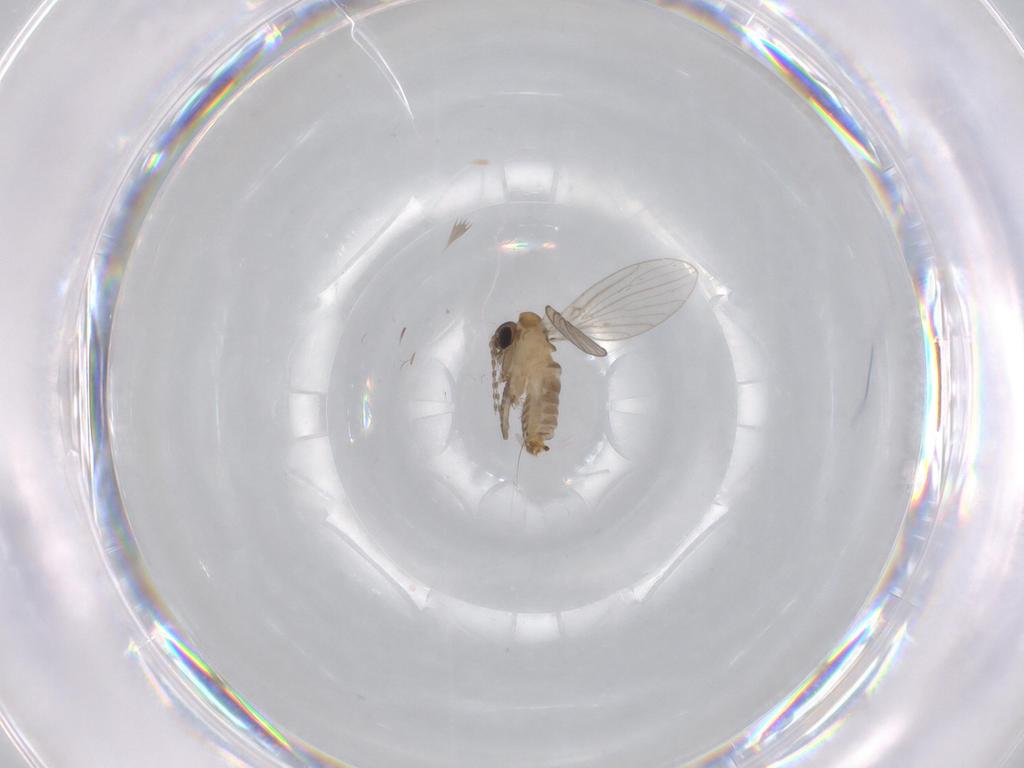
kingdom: Animalia
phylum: Arthropoda
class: Insecta
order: Diptera
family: Psychodidae
